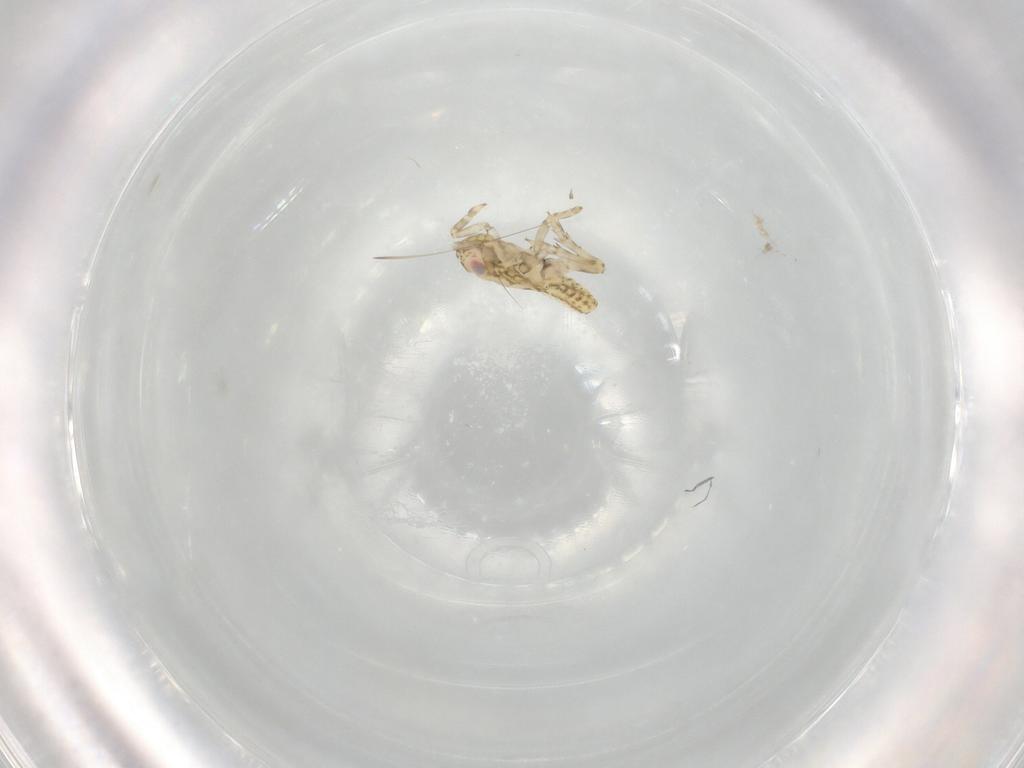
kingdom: Animalia
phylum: Arthropoda
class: Insecta
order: Hemiptera
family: Cicadellidae
